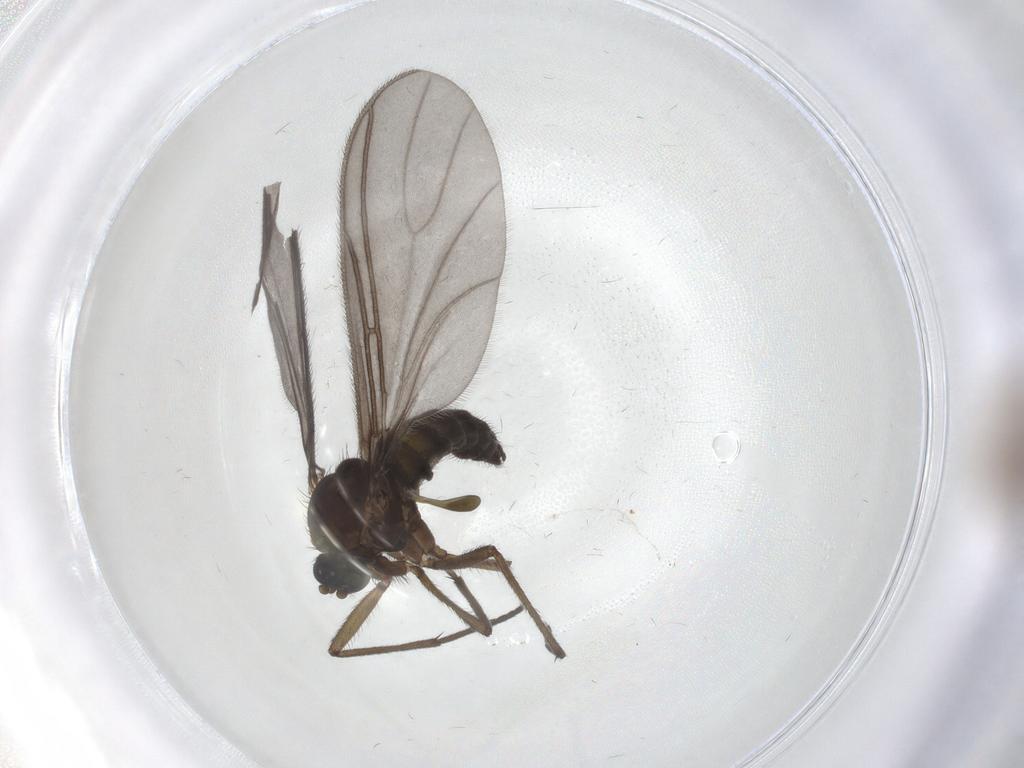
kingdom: Animalia
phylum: Arthropoda
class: Insecta
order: Diptera
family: Sciaridae
